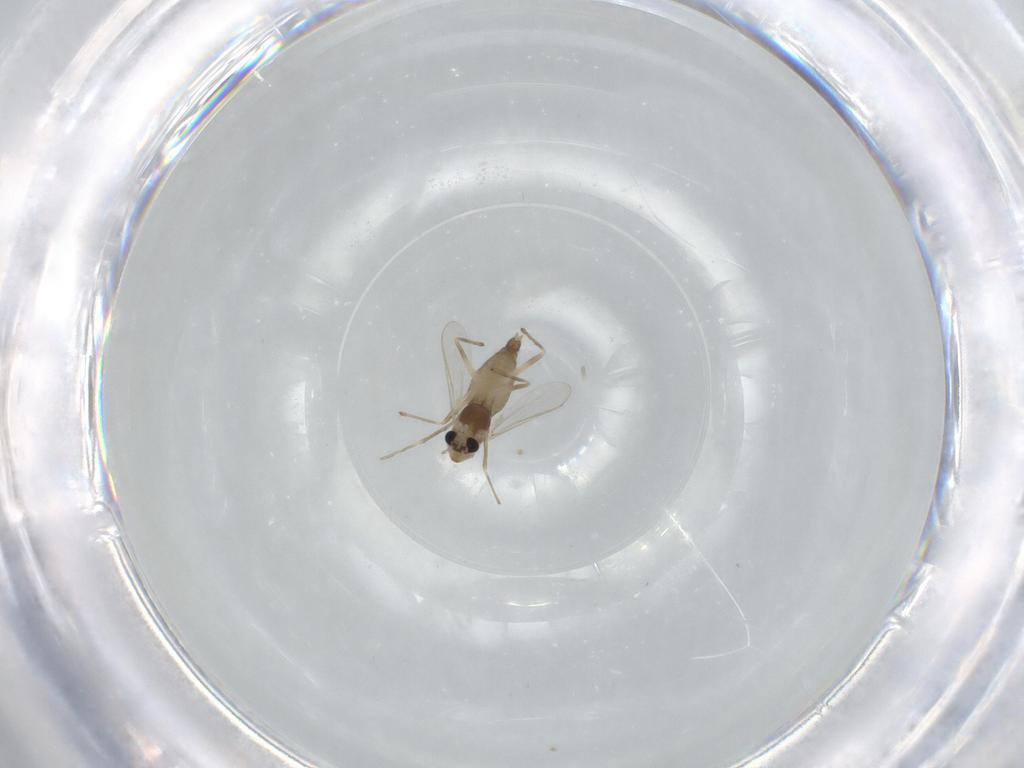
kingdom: Animalia
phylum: Arthropoda
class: Insecta
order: Diptera
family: Chironomidae
